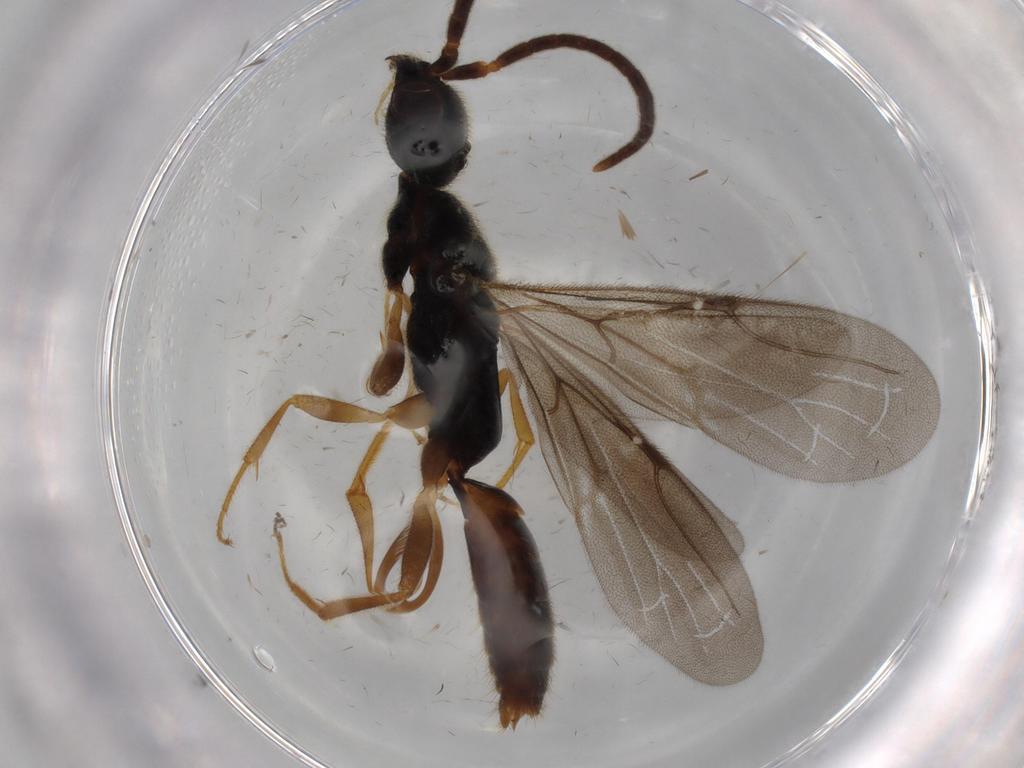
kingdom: Animalia
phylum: Arthropoda
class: Insecta
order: Hymenoptera
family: Bethylidae
